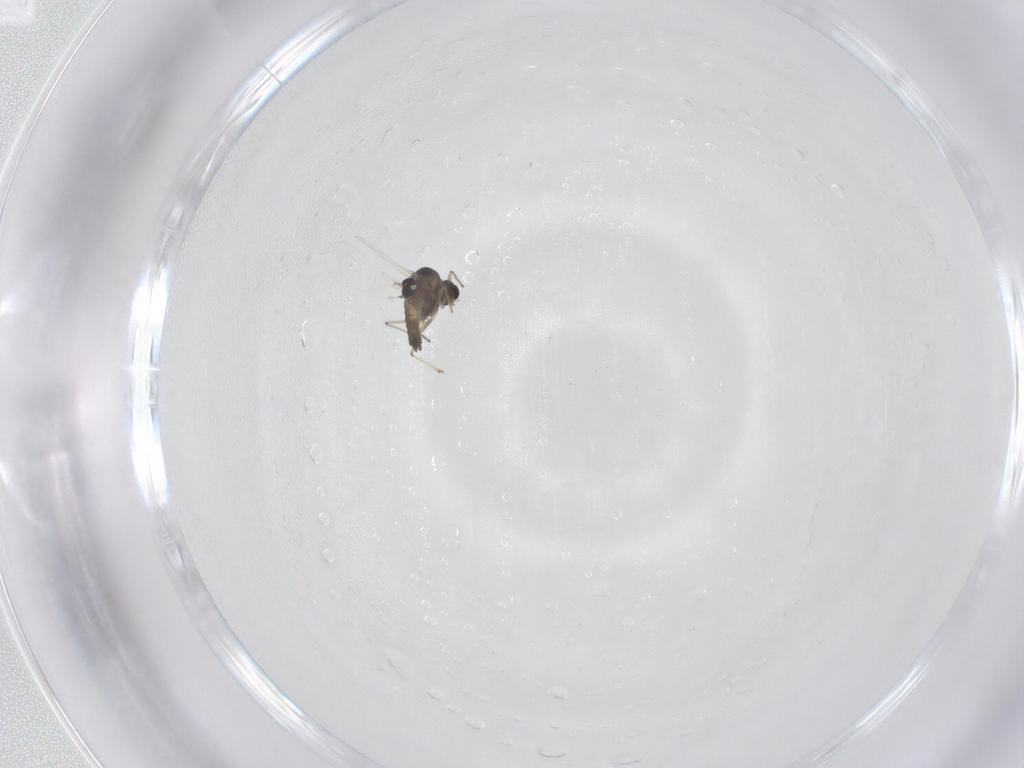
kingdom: Animalia
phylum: Arthropoda
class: Insecta
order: Diptera
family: Chironomidae
